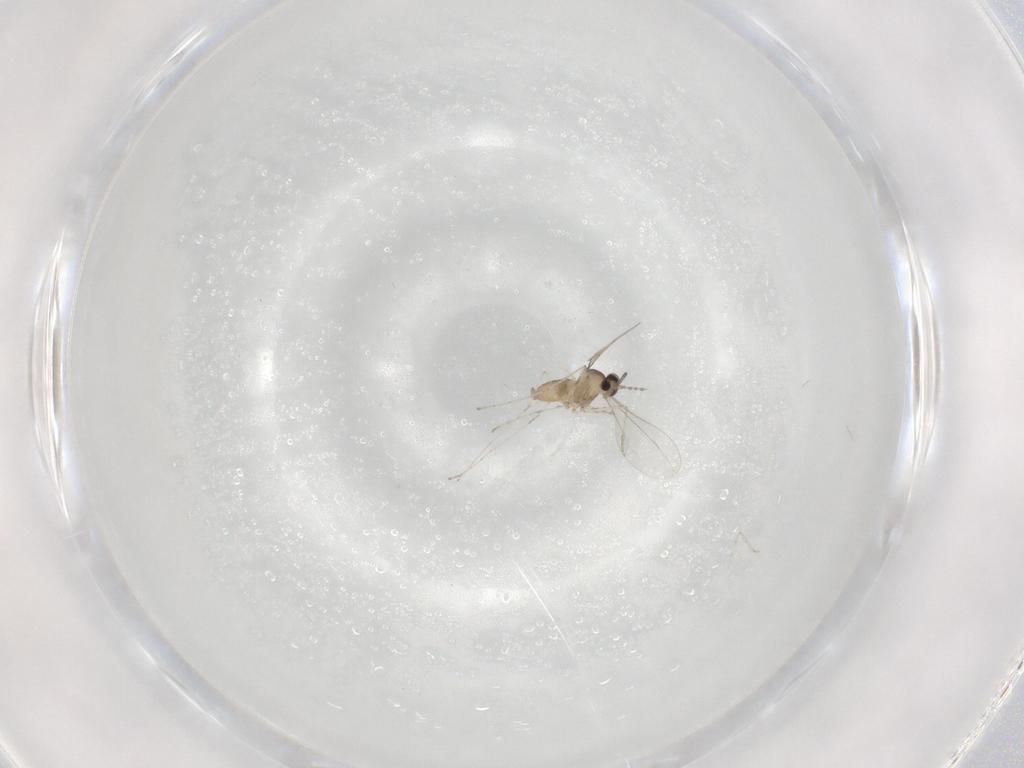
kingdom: Animalia
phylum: Arthropoda
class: Insecta
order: Diptera
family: Cecidomyiidae
